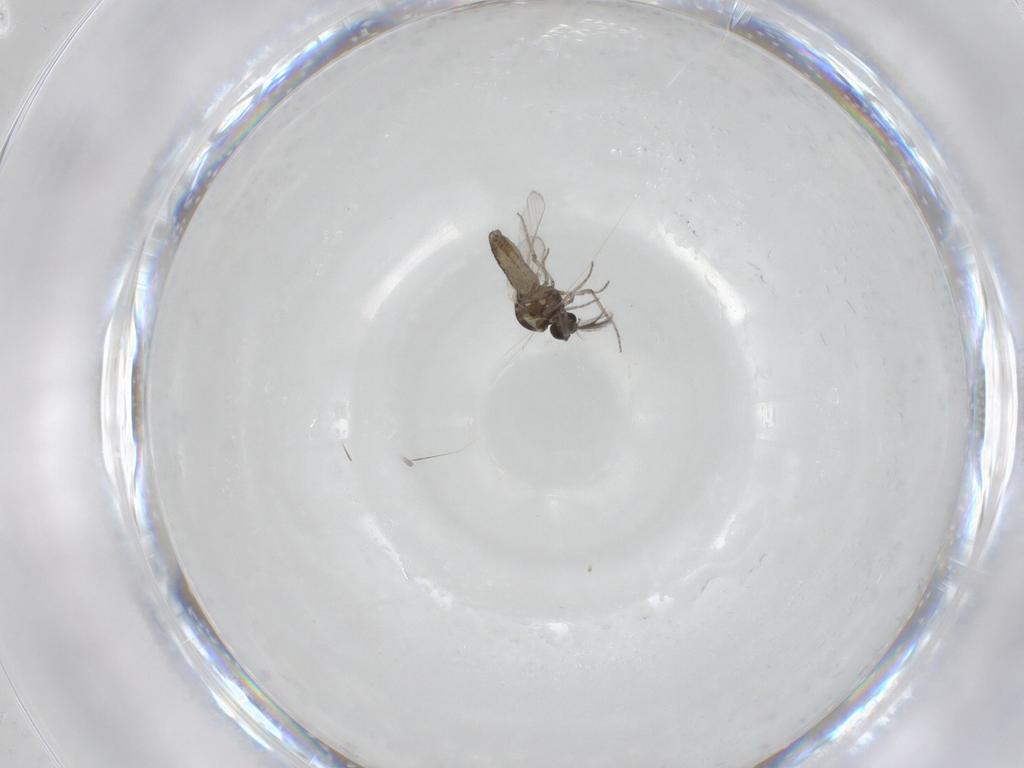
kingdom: Animalia
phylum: Arthropoda
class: Insecta
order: Diptera
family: Ceratopogonidae
